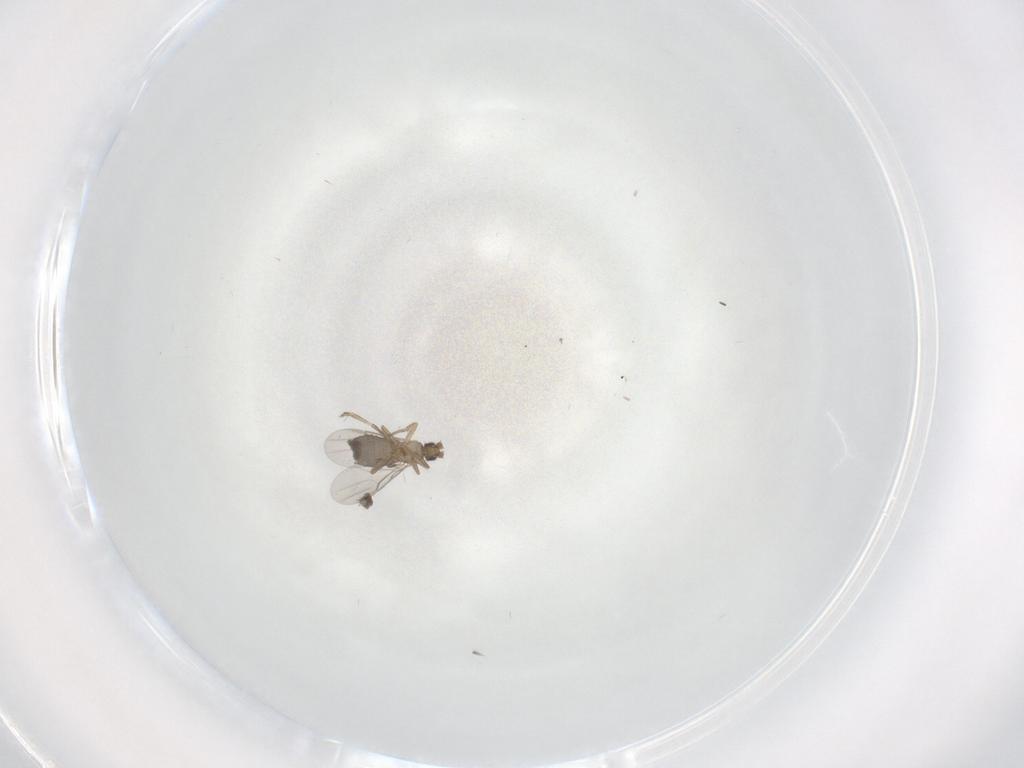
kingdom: Animalia
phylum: Arthropoda
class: Insecta
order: Diptera
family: Phoridae
